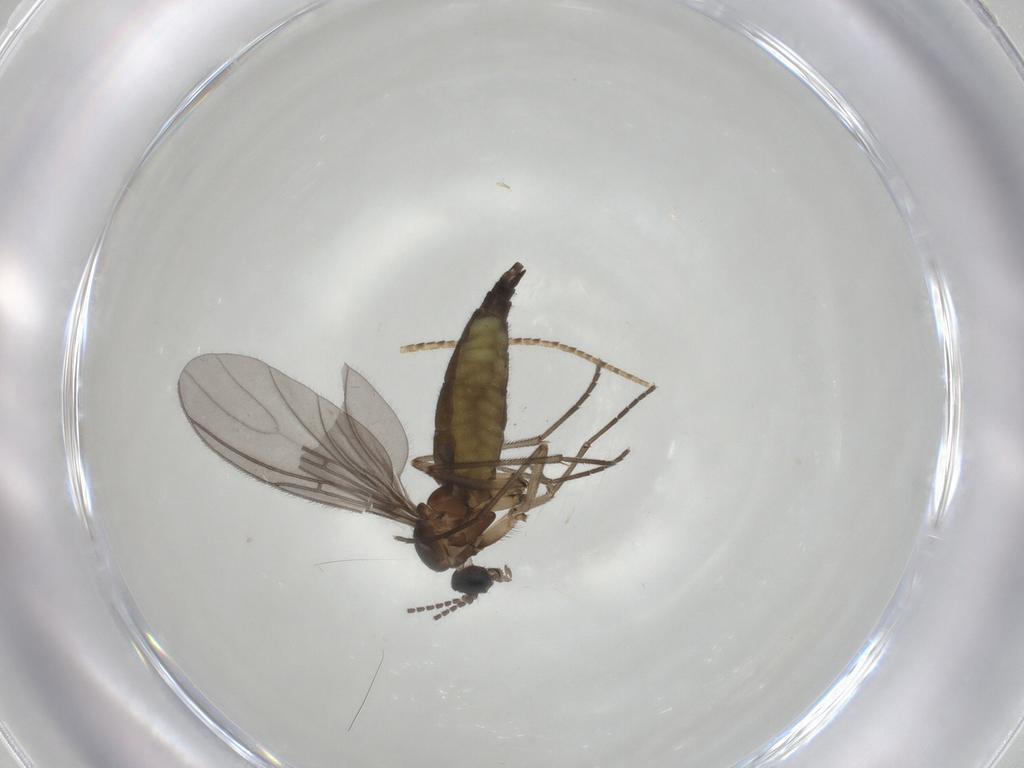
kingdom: Animalia
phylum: Arthropoda
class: Insecta
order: Diptera
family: Sciaridae
